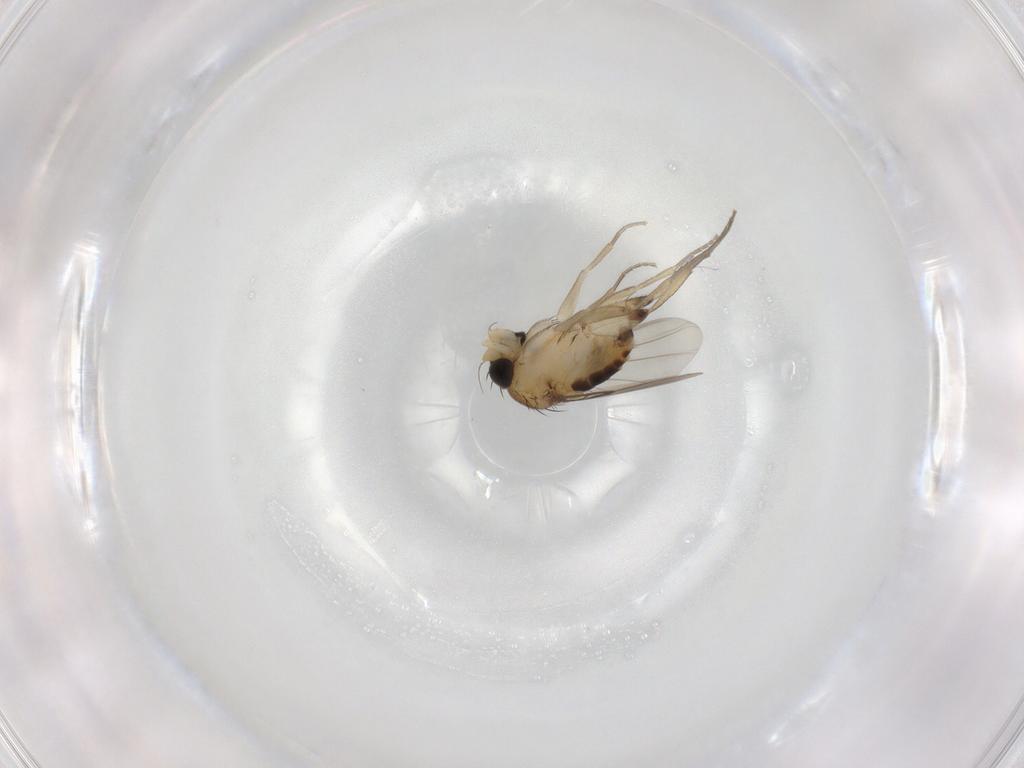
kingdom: Animalia
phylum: Arthropoda
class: Insecta
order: Diptera
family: Phoridae
